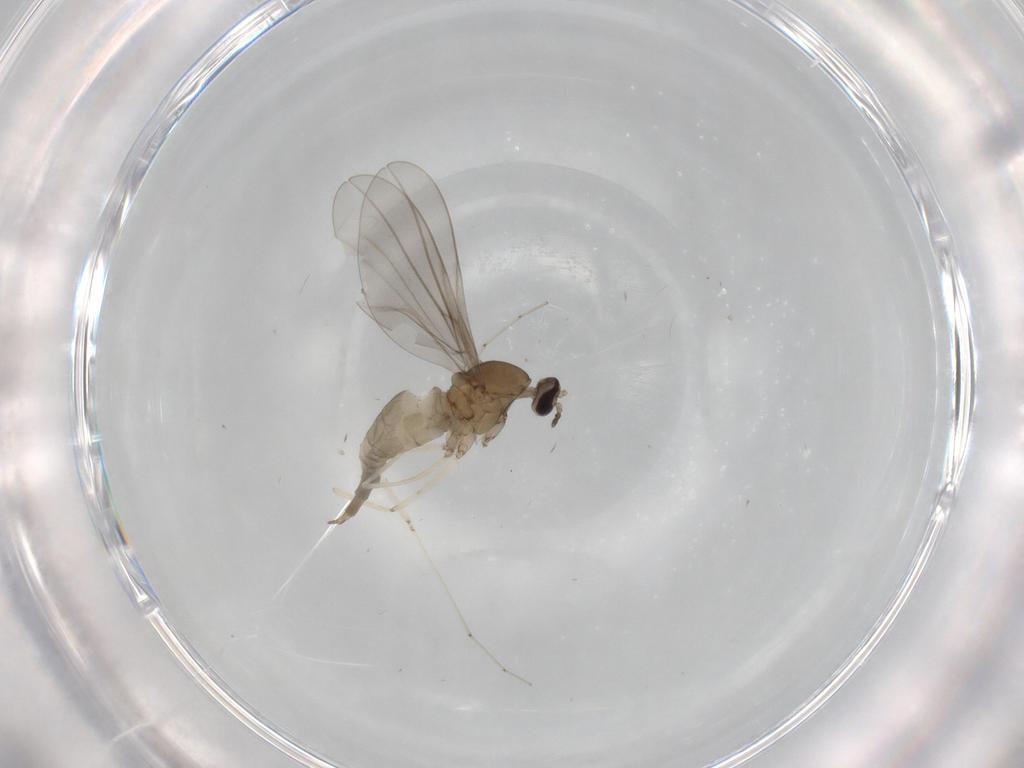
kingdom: Animalia
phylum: Arthropoda
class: Insecta
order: Diptera
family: Cecidomyiidae
